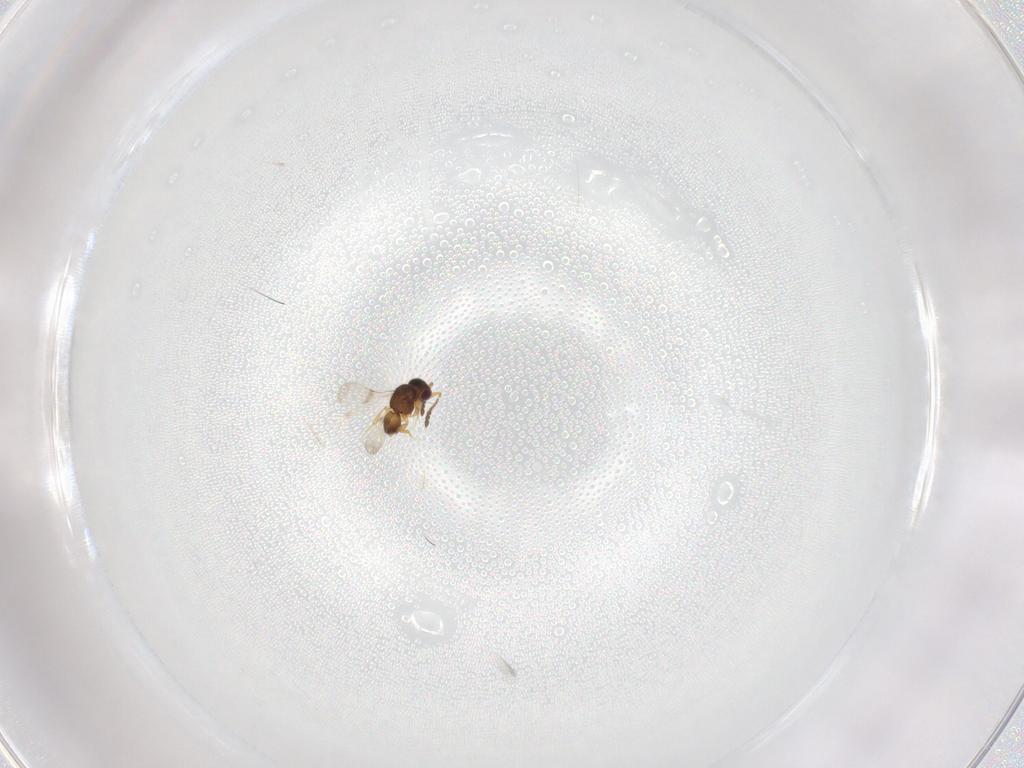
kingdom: Animalia
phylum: Arthropoda
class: Insecta
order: Hymenoptera
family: Ceraphronidae
